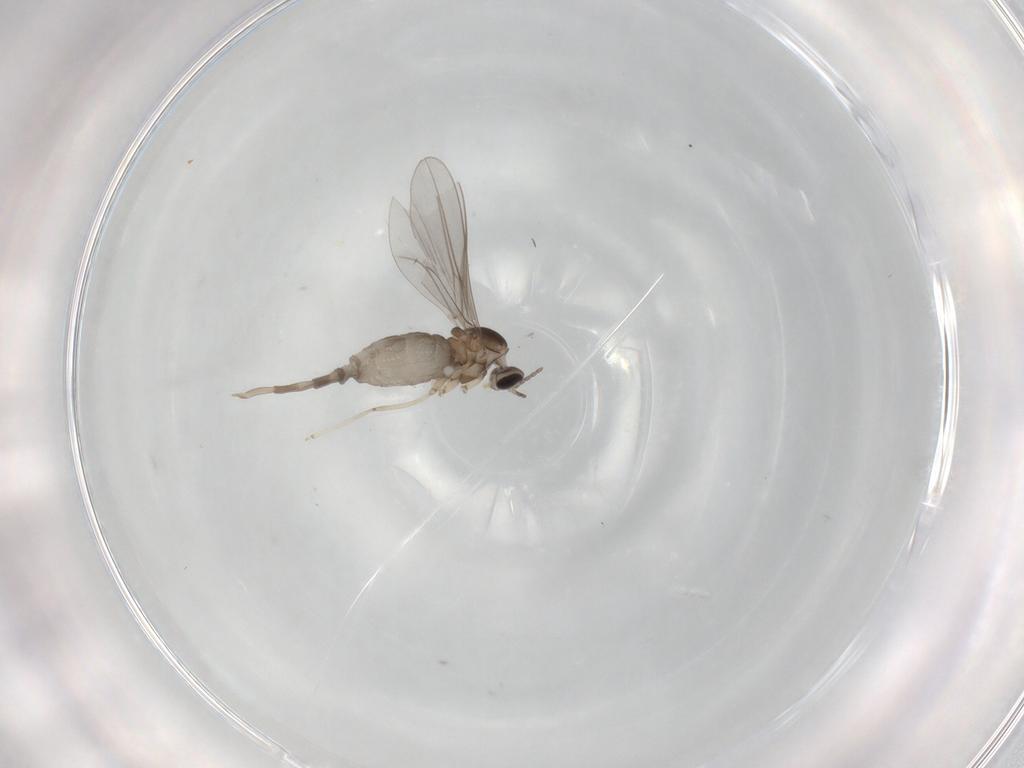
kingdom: Animalia
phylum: Arthropoda
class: Insecta
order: Diptera
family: Cecidomyiidae
